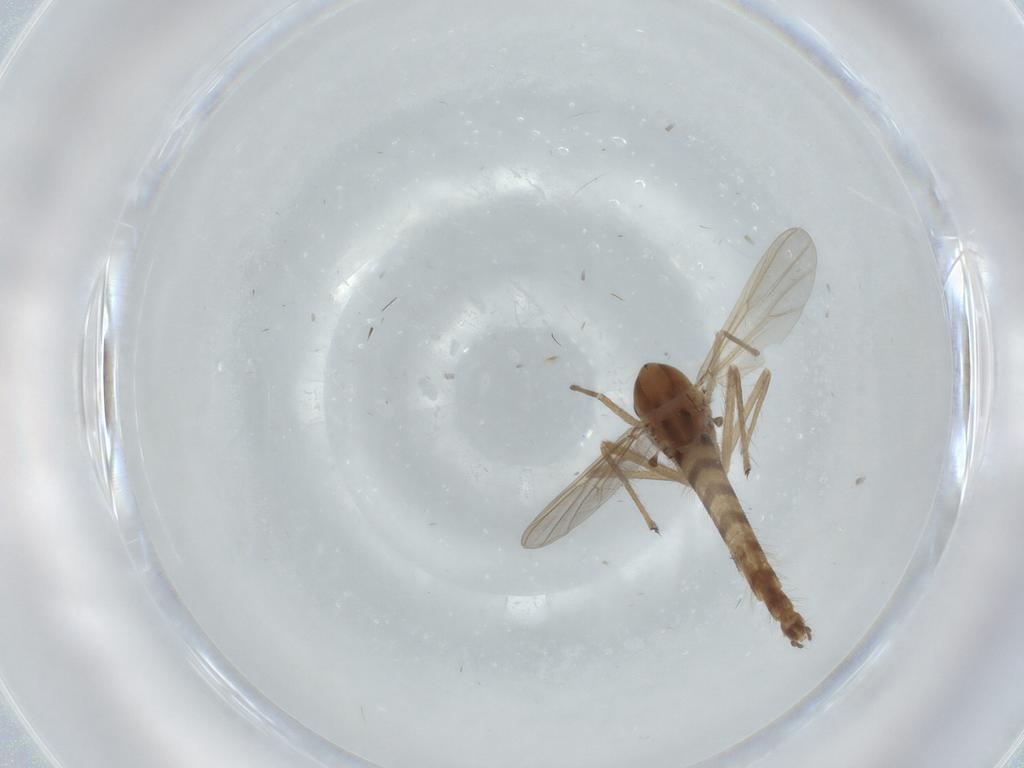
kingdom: Animalia
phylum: Arthropoda
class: Insecta
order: Diptera
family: Chironomidae
